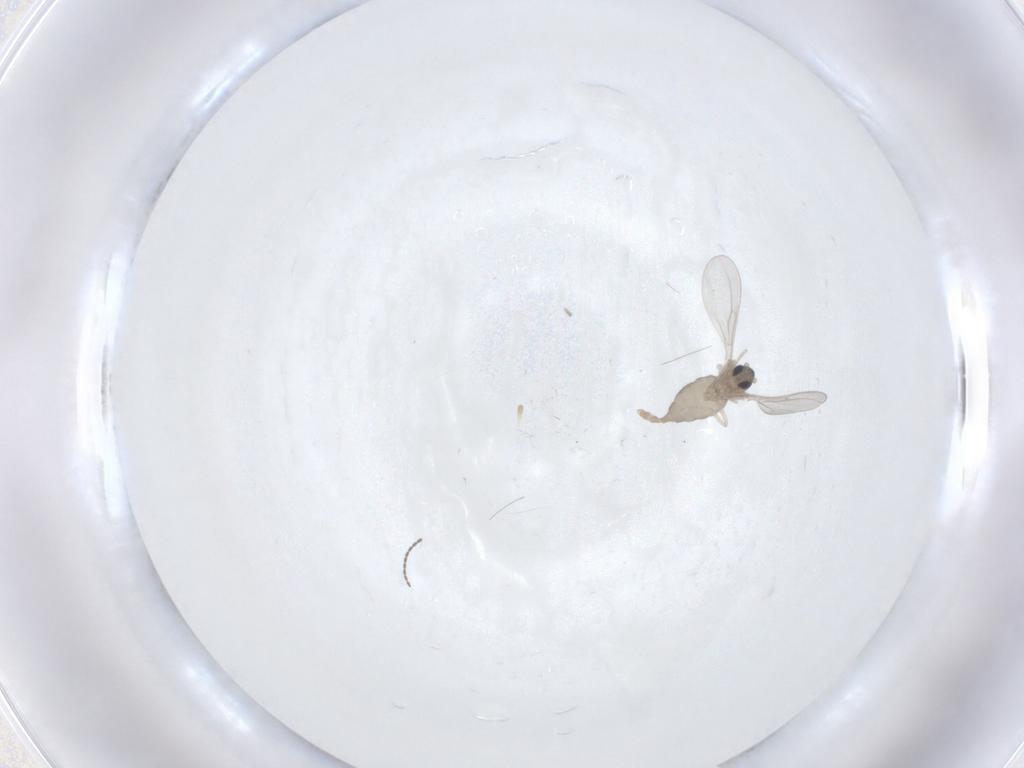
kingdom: Animalia
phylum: Arthropoda
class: Insecta
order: Diptera
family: Cecidomyiidae
